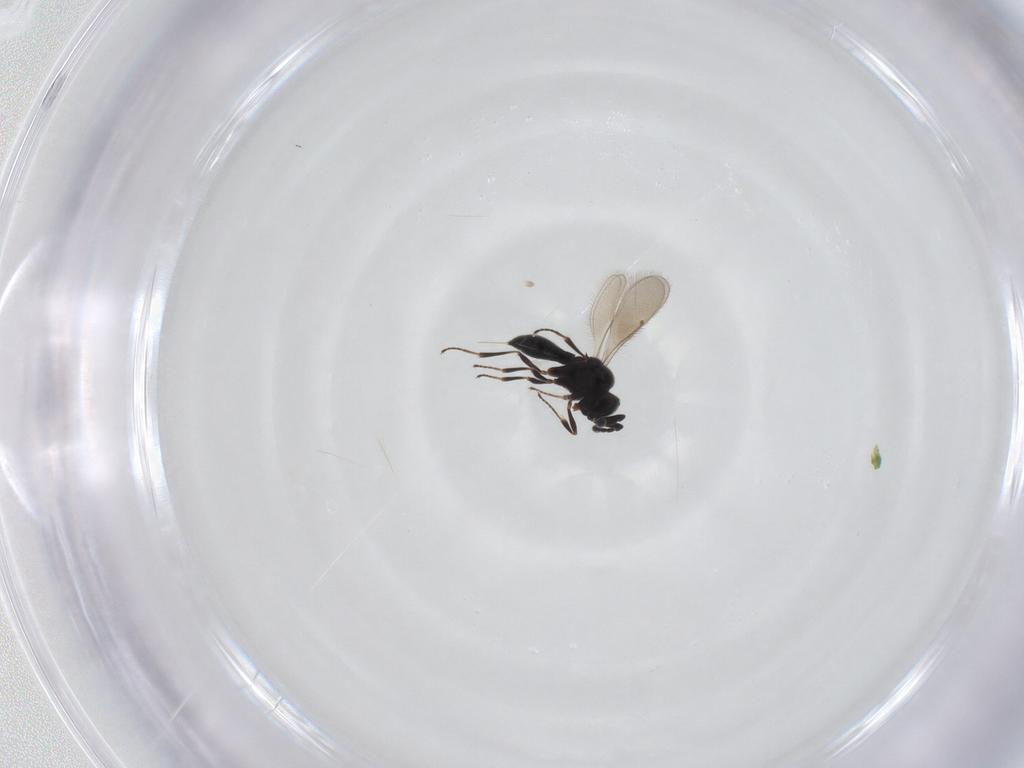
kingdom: Animalia
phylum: Arthropoda
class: Insecta
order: Hymenoptera
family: Scelionidae
